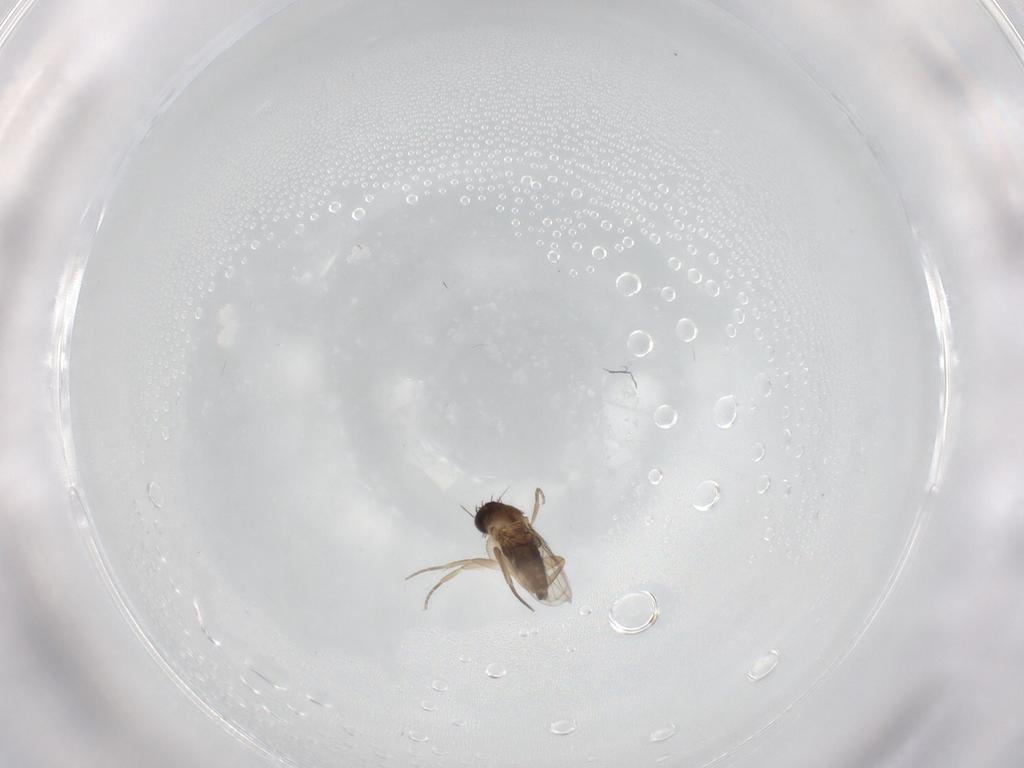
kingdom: Animalia
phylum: Arthropoda
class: Insecta
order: Diptera
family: Phoridae
